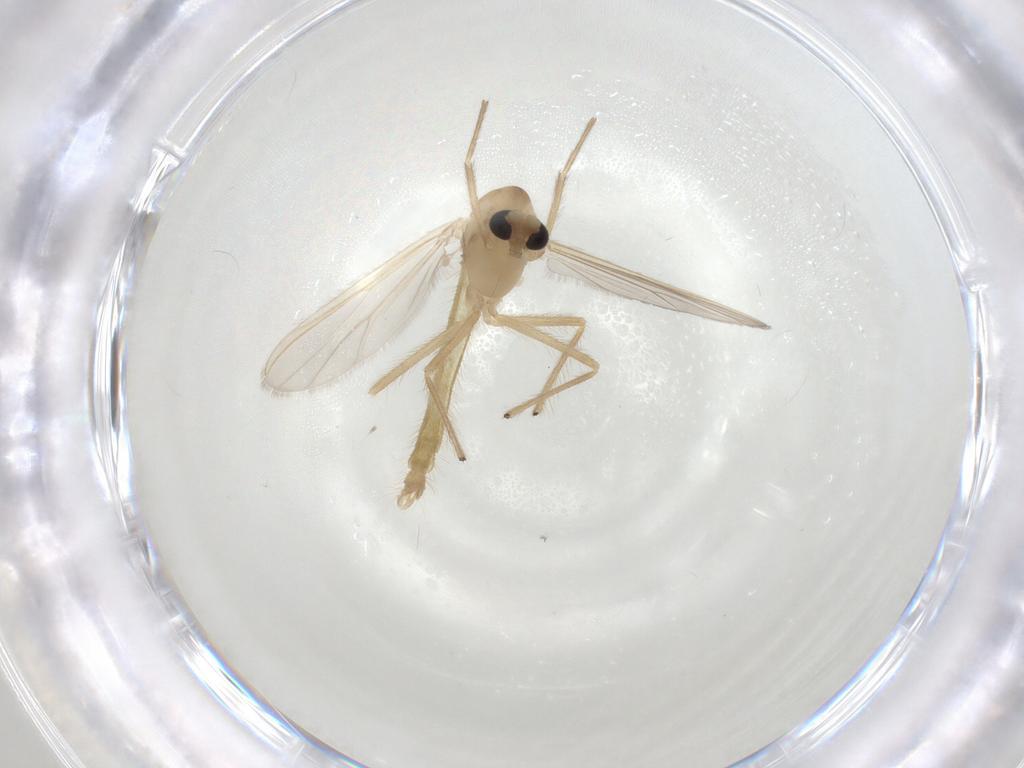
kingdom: Animalia
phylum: Arthropoda
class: Insecta
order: Diptera
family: Chironomidae
